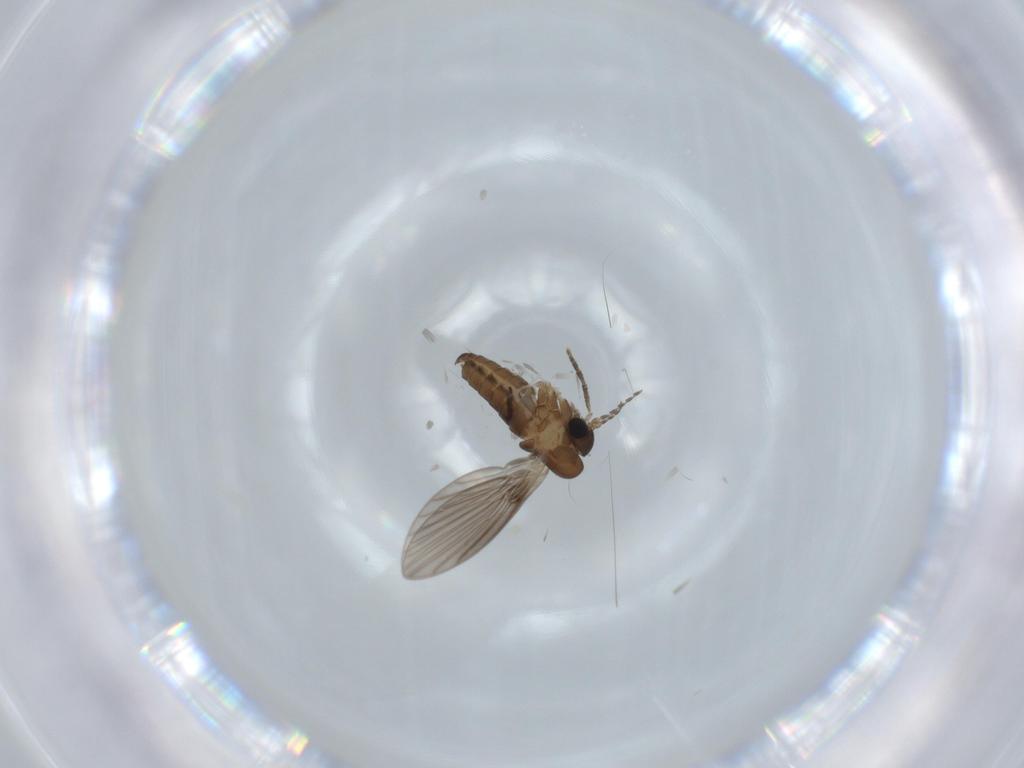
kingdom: Animalia
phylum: Arthropoda
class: Insecta
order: Diptera
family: Psychodidae
